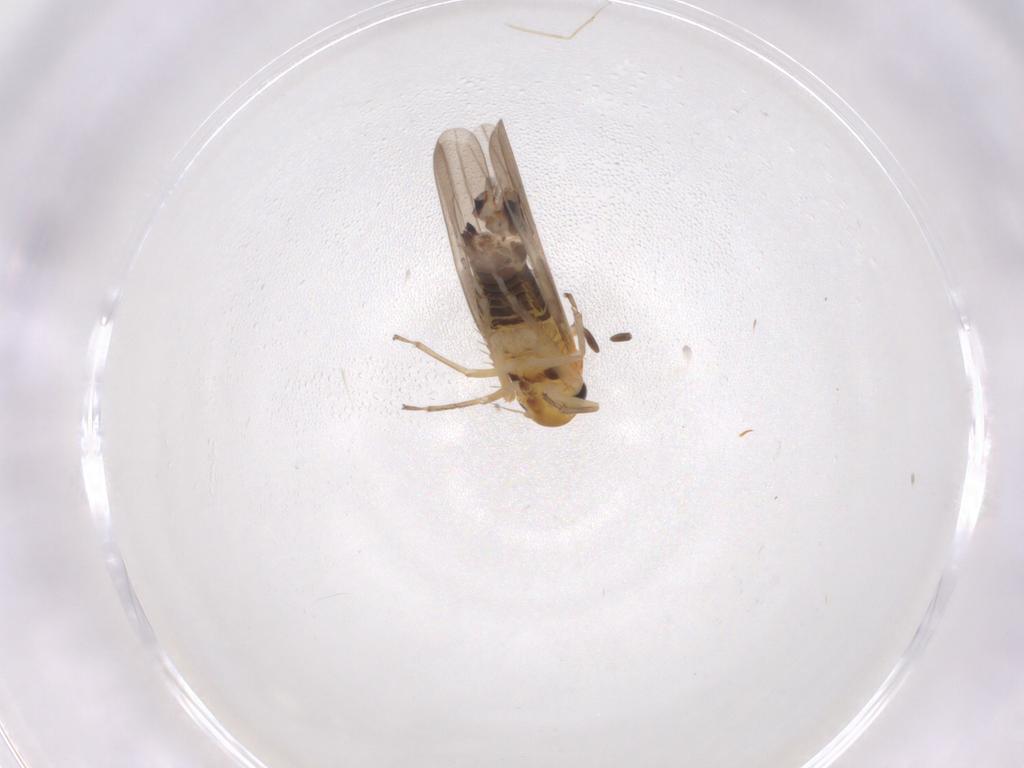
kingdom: Animalia
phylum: Arthropoda
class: Insecta
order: Hemiptera
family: Cicadellidae
